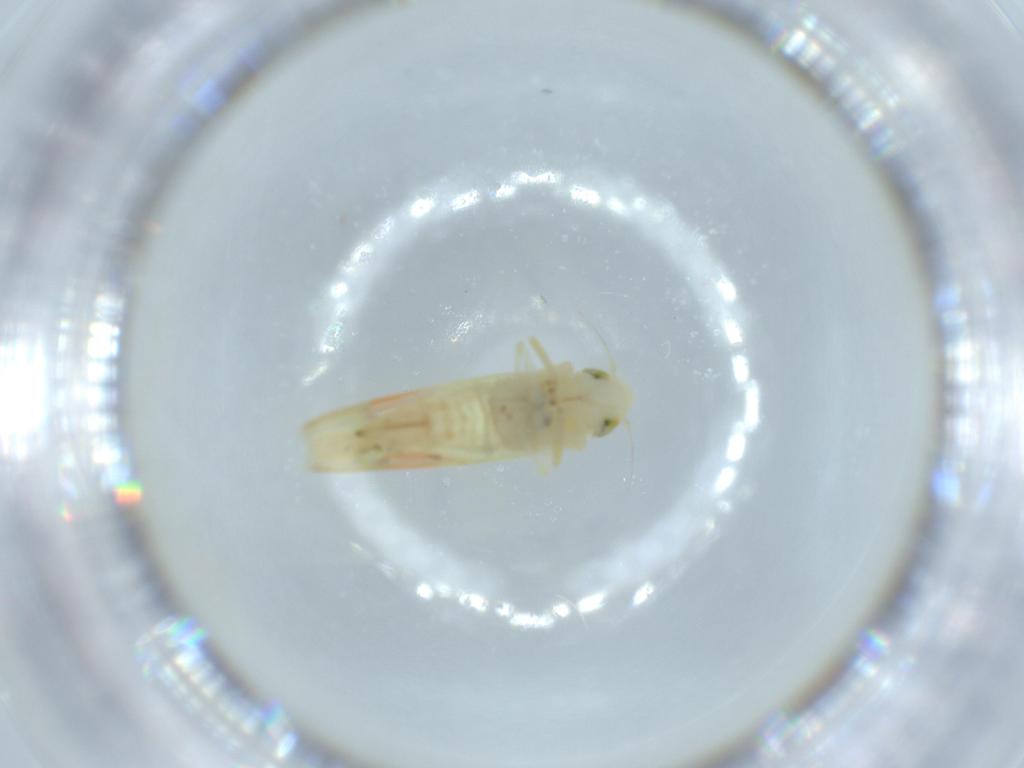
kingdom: Animalia
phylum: Arthropoda
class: Insecta
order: Hemiptera
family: Cicadellidae
